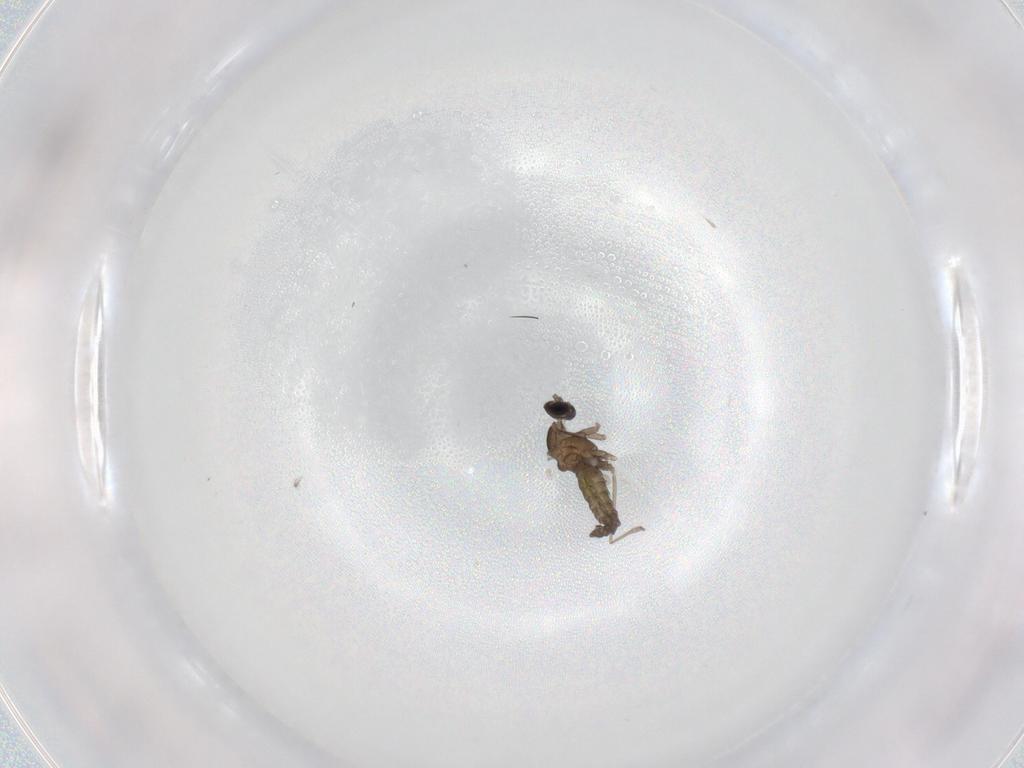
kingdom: Animalia
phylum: Arthropoda
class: Insecta
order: Diptera
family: Cecidomyiidae
